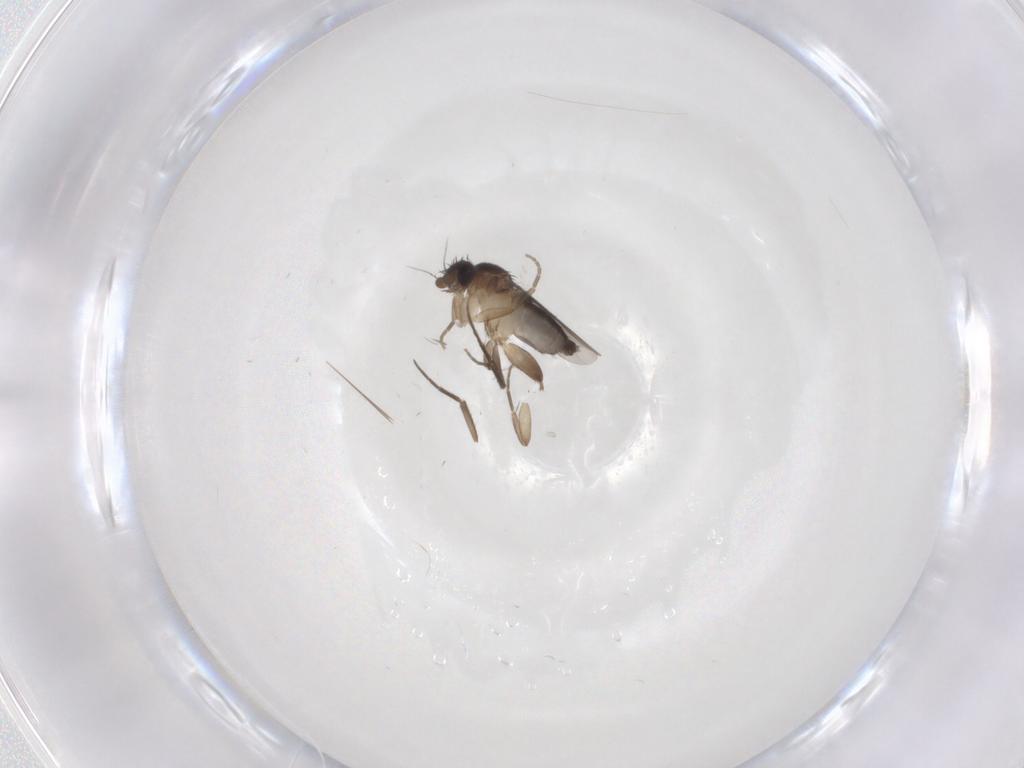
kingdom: Animalia
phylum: Arthropoda
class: Insecta
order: Diptera
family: Phoridae
